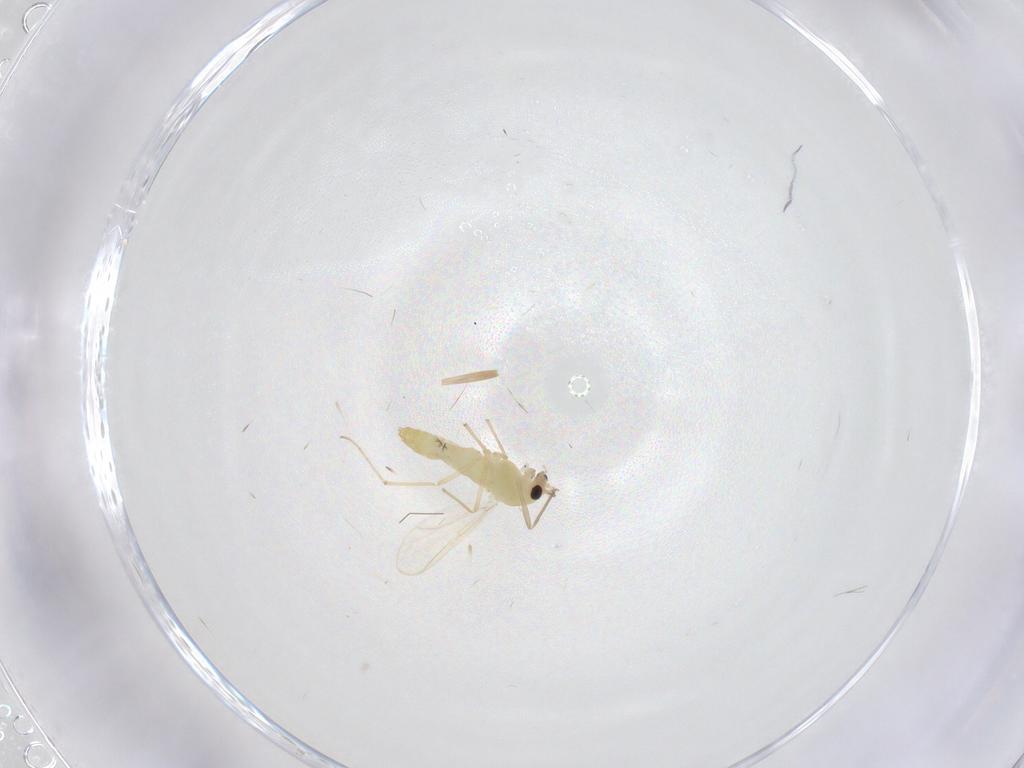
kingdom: Animalia
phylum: Arthropoda
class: Insecta
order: Diptera
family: Chironomidae
